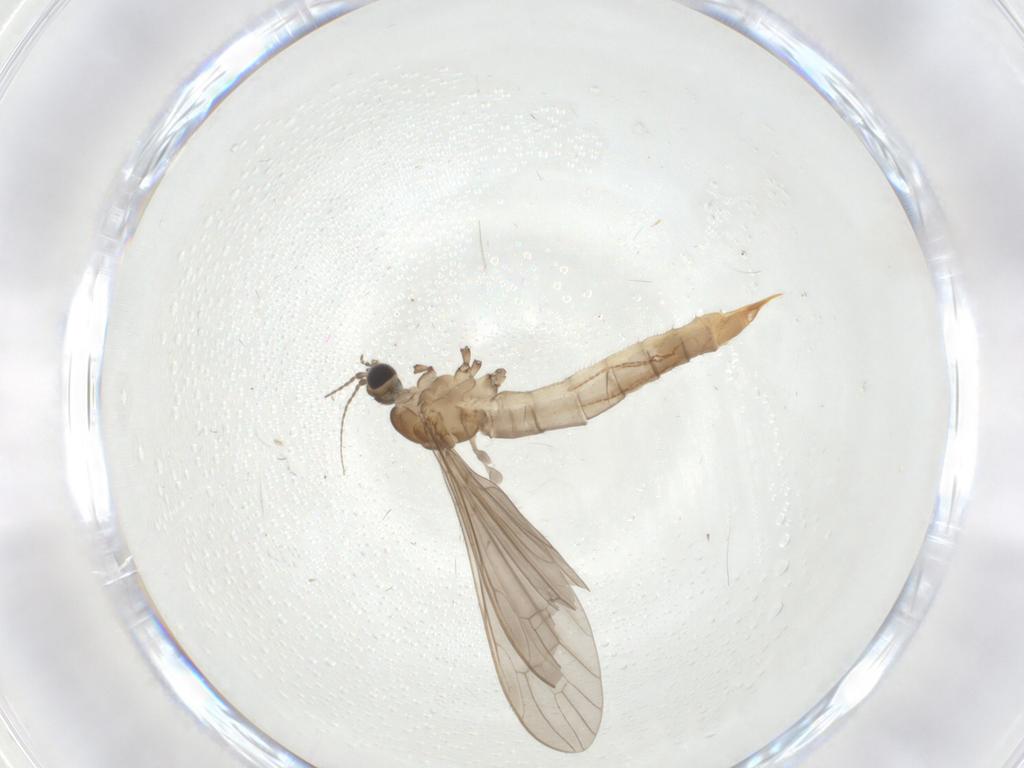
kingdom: Animalia
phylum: Arthropoda
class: Insecta
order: Diptera
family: Limoniidae
